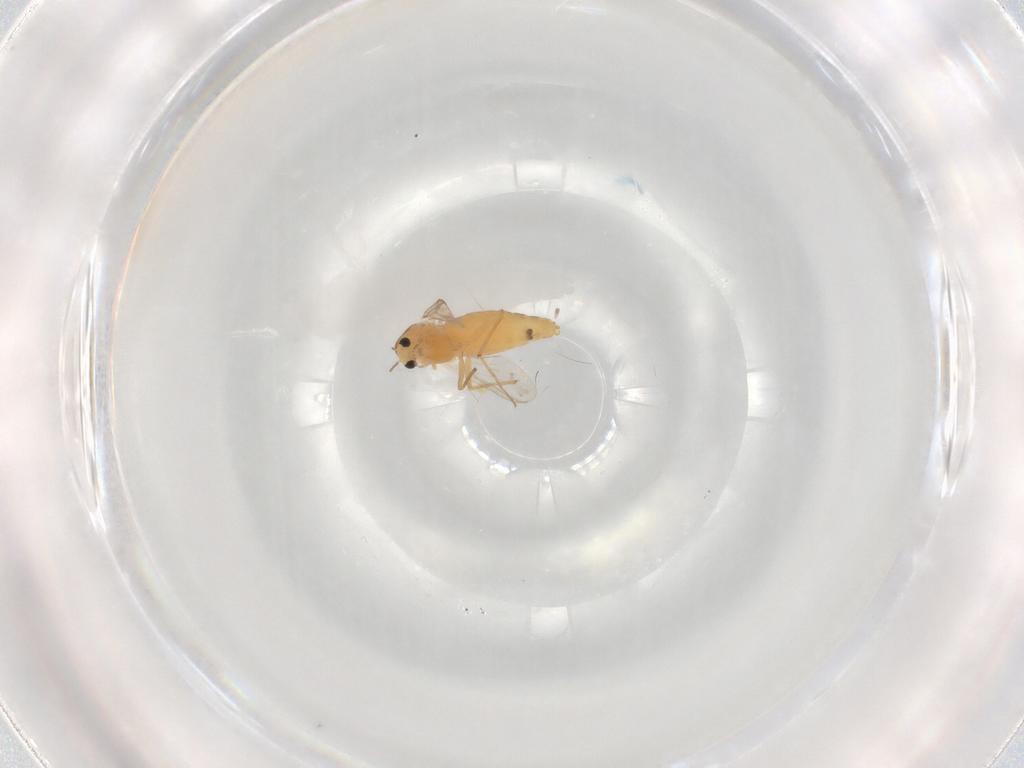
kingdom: Animalia
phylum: Arthropoda
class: Insecta
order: Diptera
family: Chironomidae
